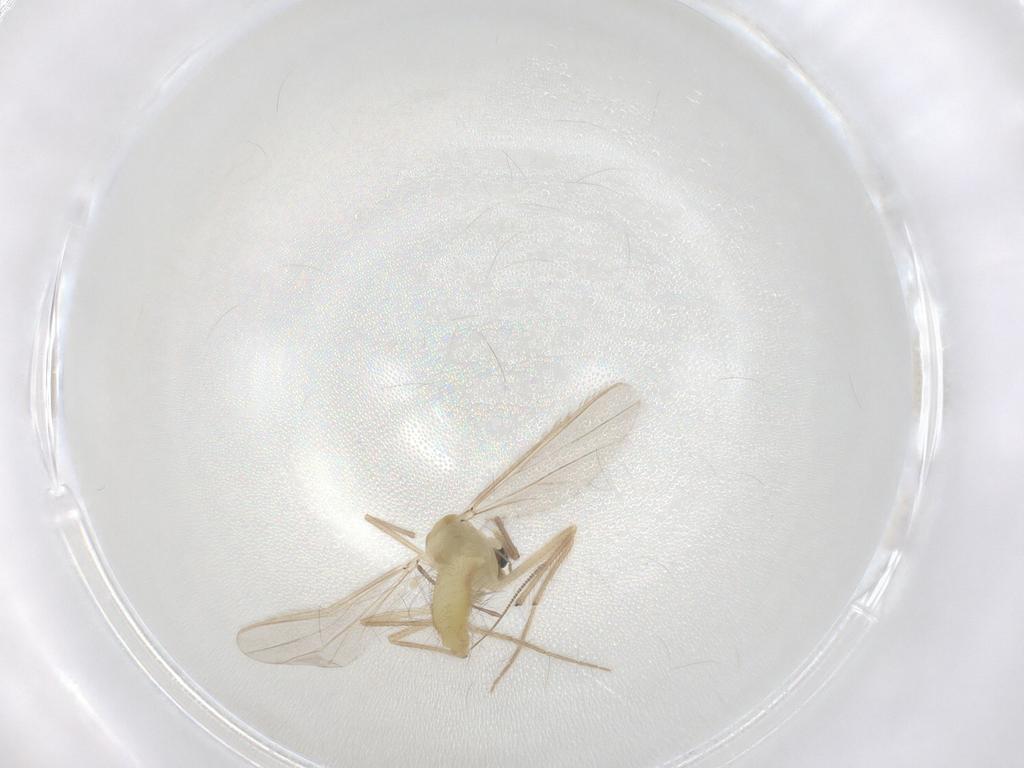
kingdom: Animalia
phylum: Arthropoda
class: Insecta
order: Diptera
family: Chironomidae
